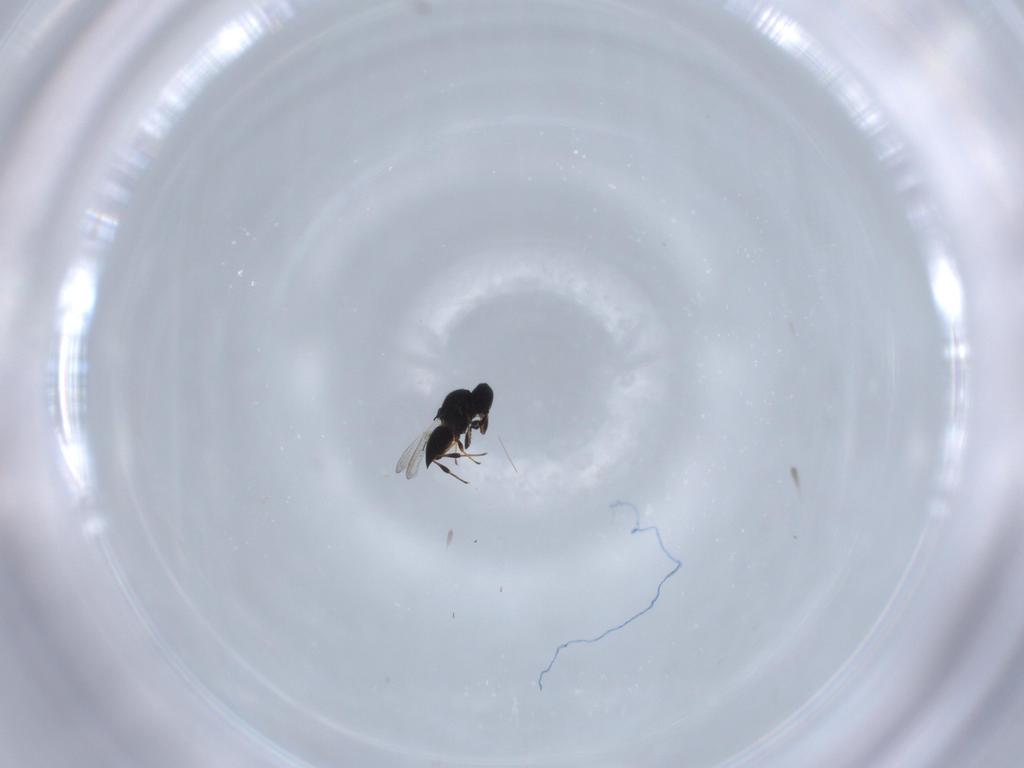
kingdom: Animalia
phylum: Arthropoda
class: Insecta
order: Hymenoptera
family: Platygastridae
